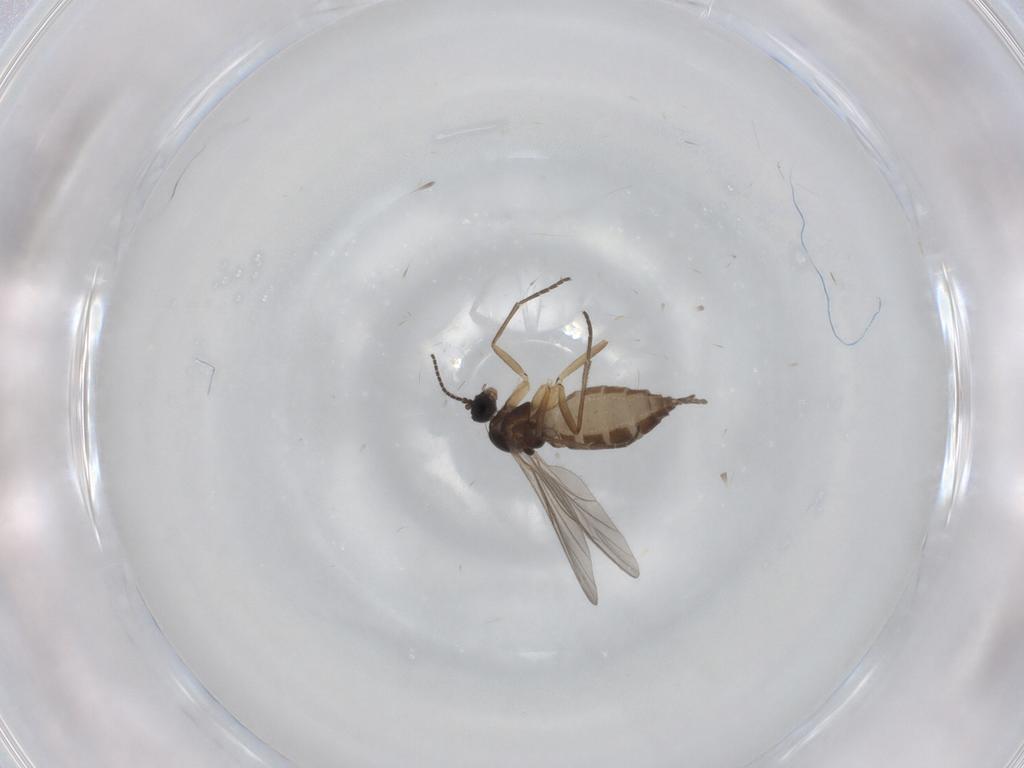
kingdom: Animalia
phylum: Arthropoda
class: Insecta
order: Diptera
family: Sciaridae
